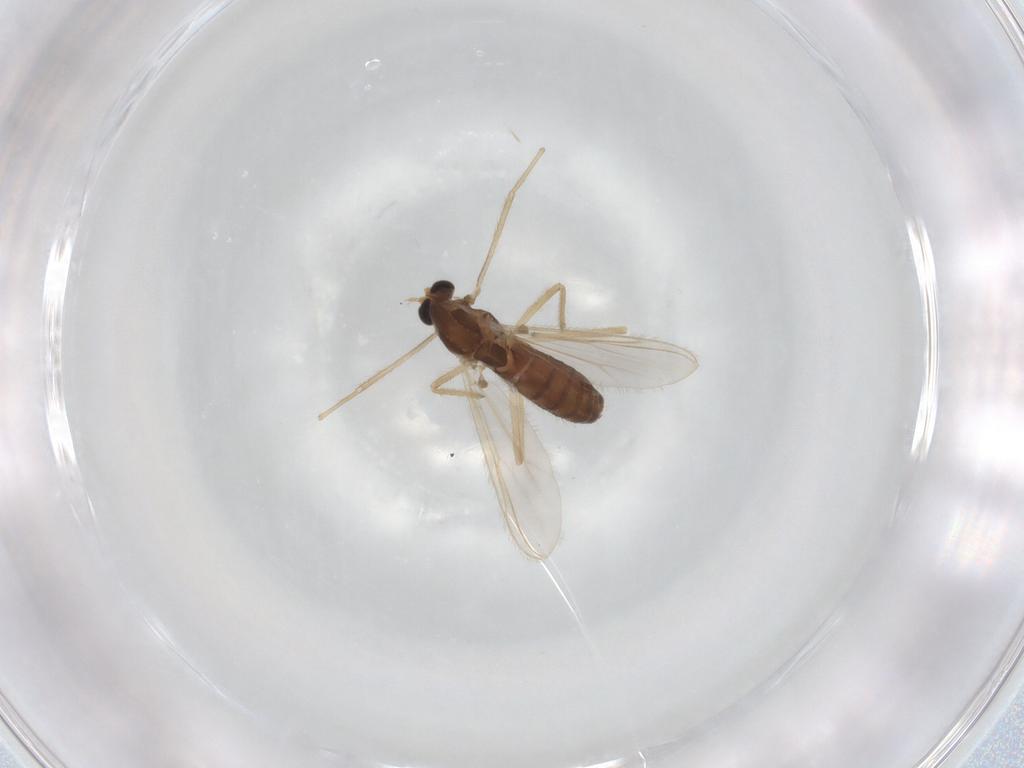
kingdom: Animalia
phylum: Arthropoda
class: Insecta
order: Diptera
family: Chironomidae
